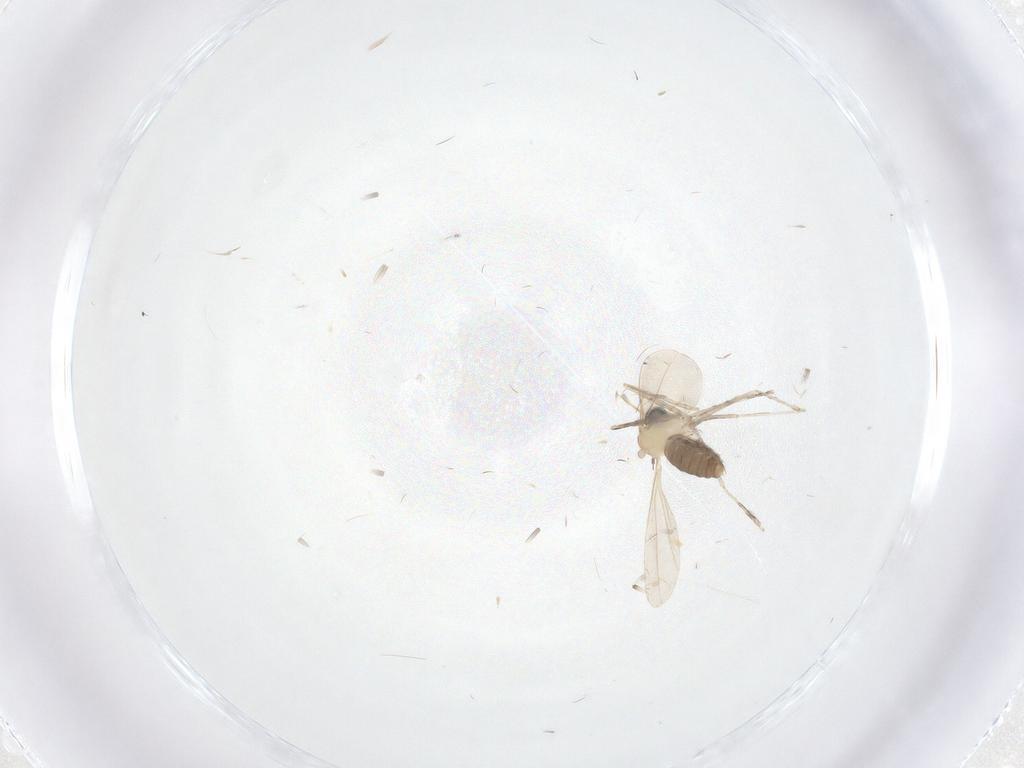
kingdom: Animalia
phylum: Arthropoda
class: Insecta
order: Diptera
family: Cecidomyiidae
